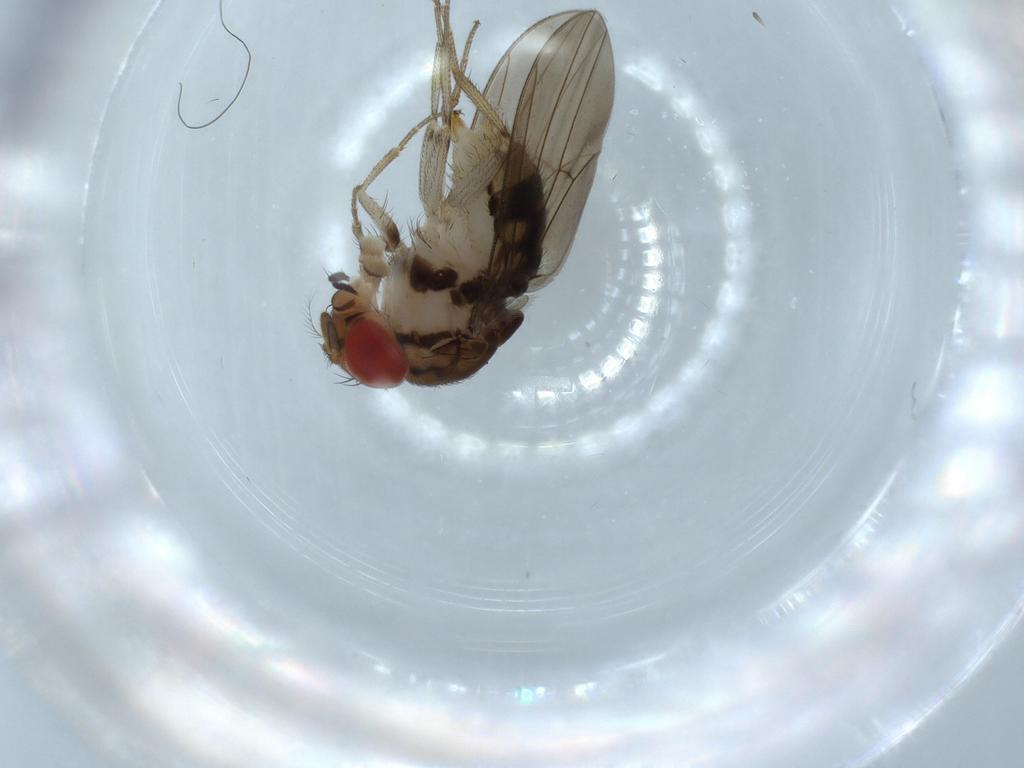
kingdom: Animalia
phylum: Arthropoda
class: Insecta
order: Diptera
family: Drosophilidae
